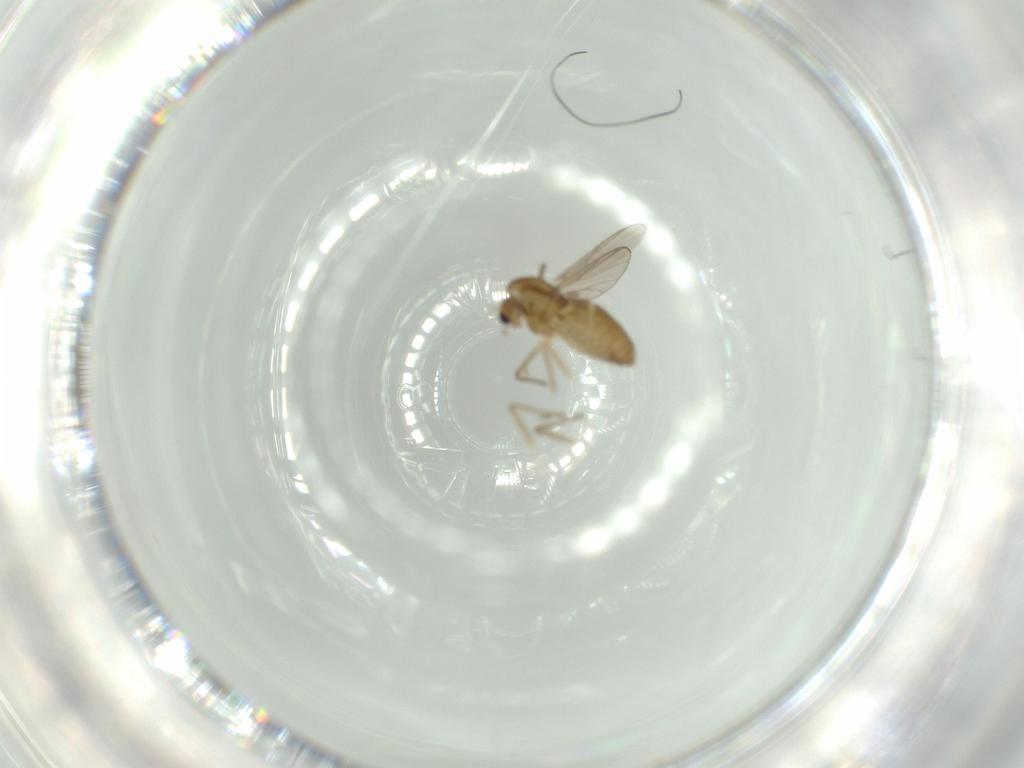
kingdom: Animalia
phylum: Arthropoda
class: Insecta
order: Diptera
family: Chironomidae
